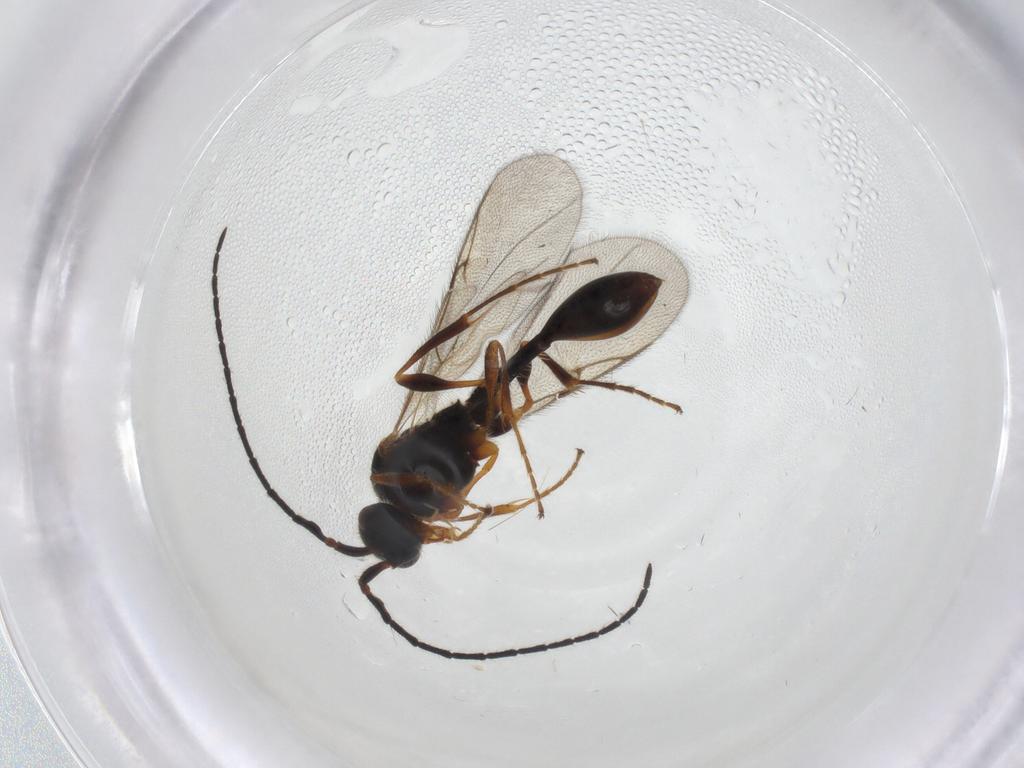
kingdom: Animalia
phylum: Arthropoda
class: Insecta
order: Hymenoptera
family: Diapriidae
